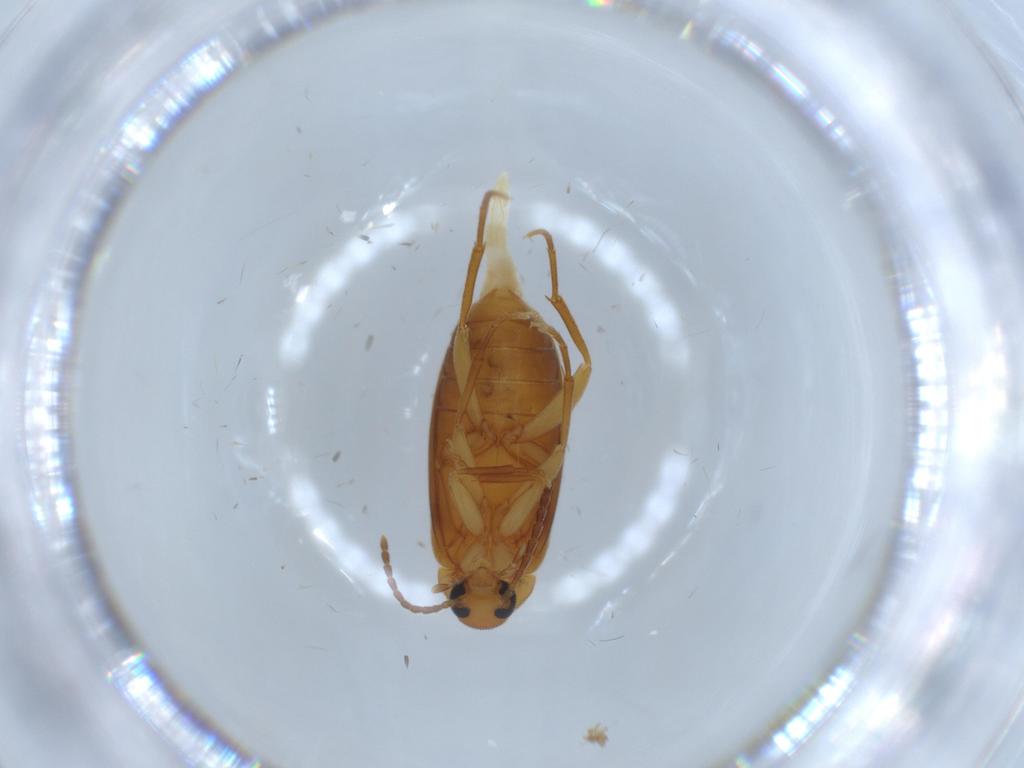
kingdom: Animalia
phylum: Arthropoda
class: Insecta
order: Coleoptera
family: Scraptiidae
